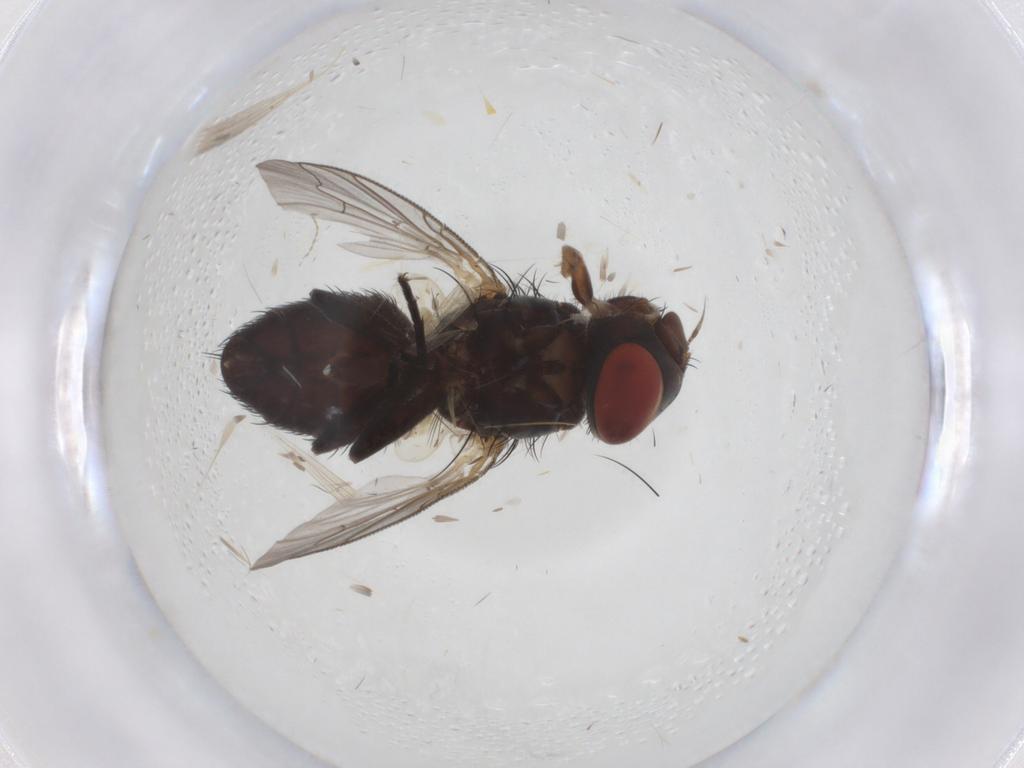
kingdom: Animalia
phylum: Arthropoda
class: Insecta
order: Diptera
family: Sarcophagidae
